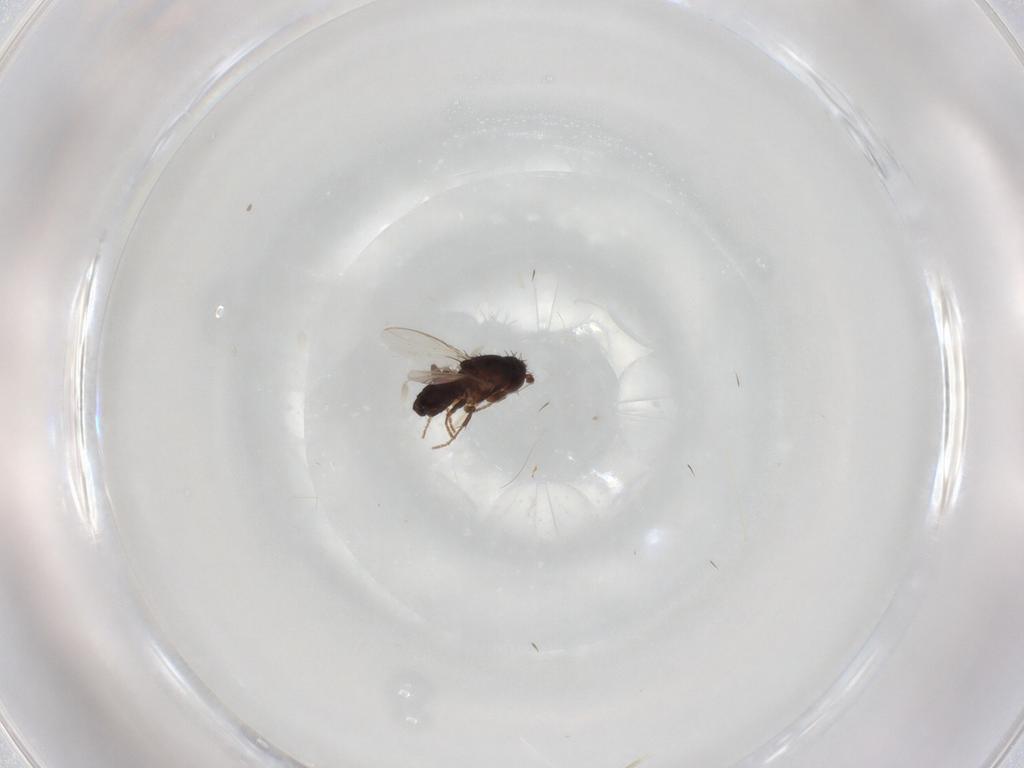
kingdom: Animalia
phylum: Arthropoda
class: Insecta
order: Diptera
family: Sphaeroceridae
